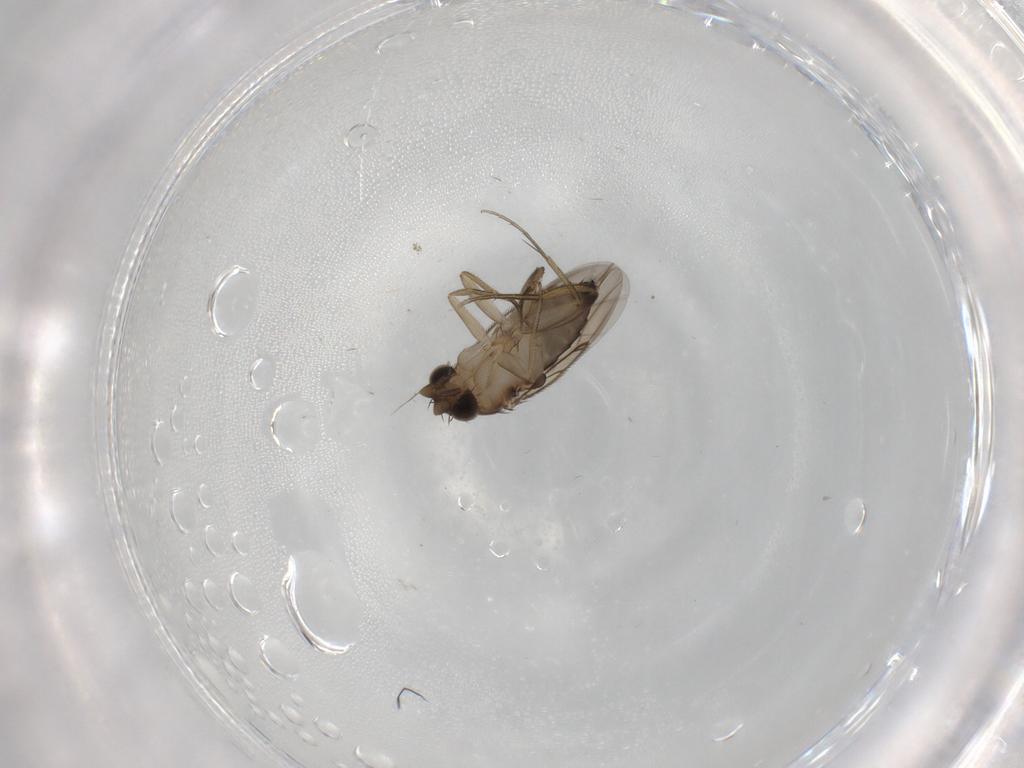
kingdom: Animalia
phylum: Arthropoda
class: Insecta
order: Diptera
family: Phoridae
